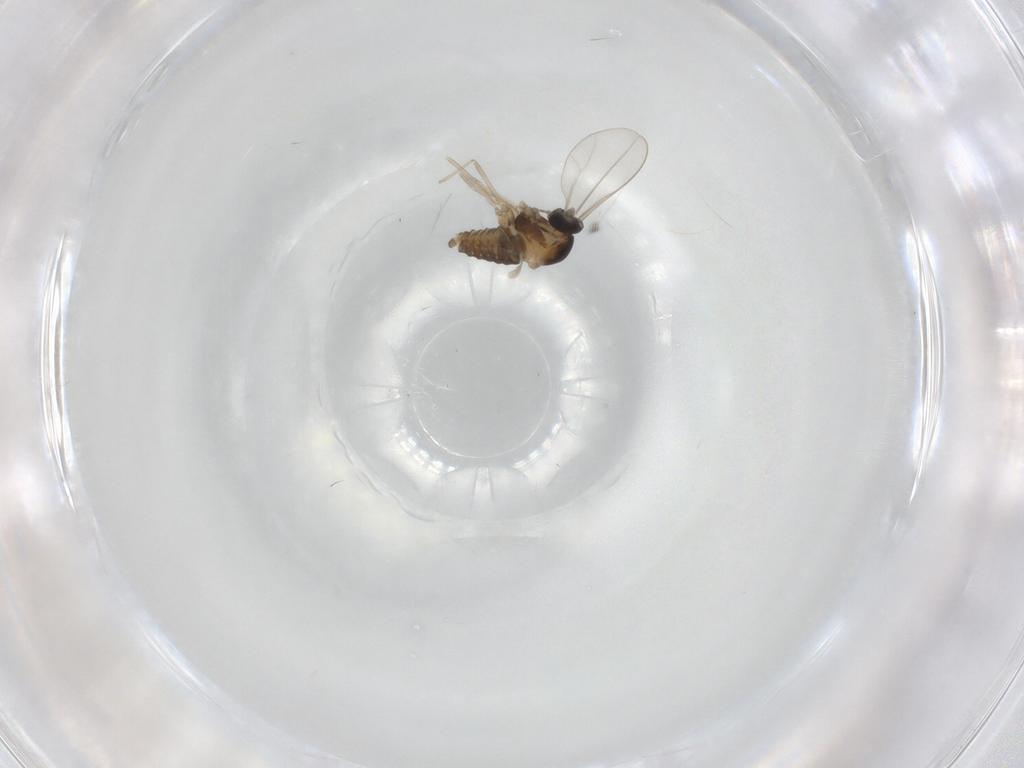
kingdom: Animalia
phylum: Arthropoda
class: Insecta
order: Diptera
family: Cecidomyiidae
